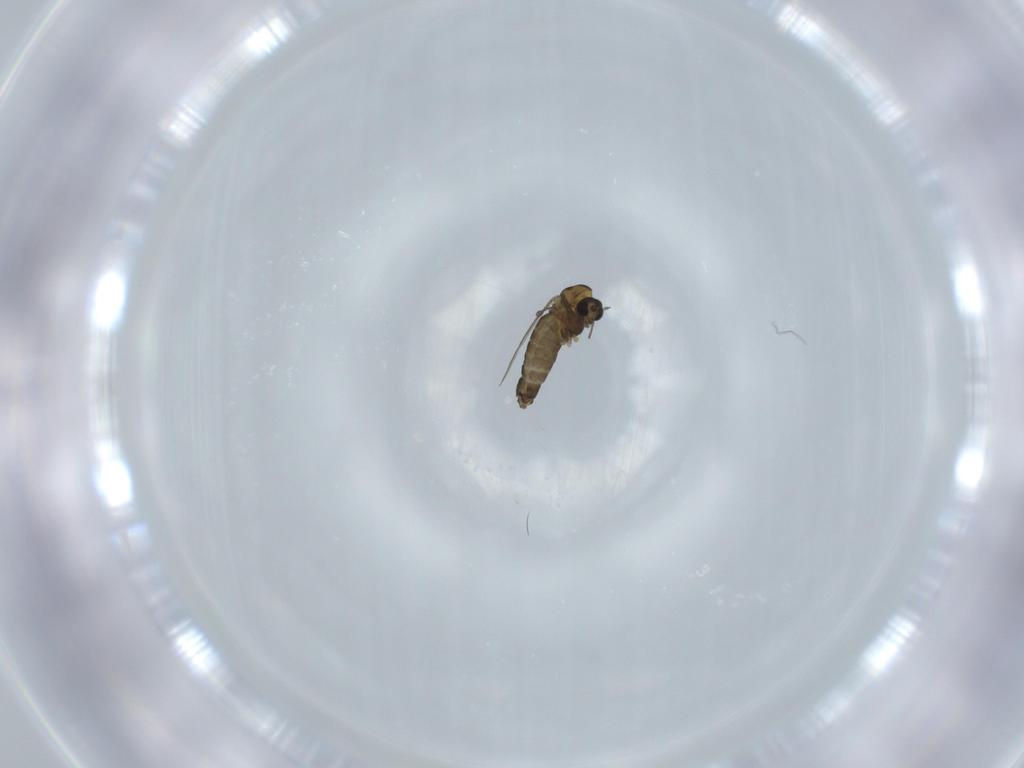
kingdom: Animalia
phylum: Arthropoda
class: Insecta
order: Diptera
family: Chironomidae
